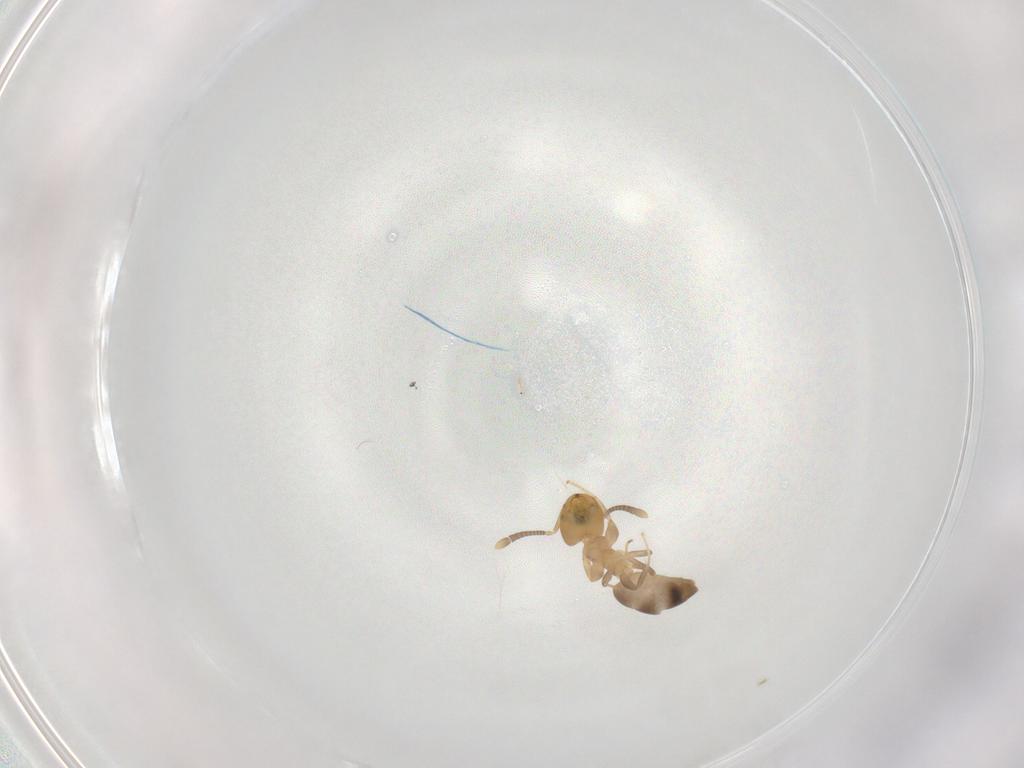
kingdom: Animalia
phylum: Arthropoda
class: Insecta
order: Hymenoptera
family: Formicidae
